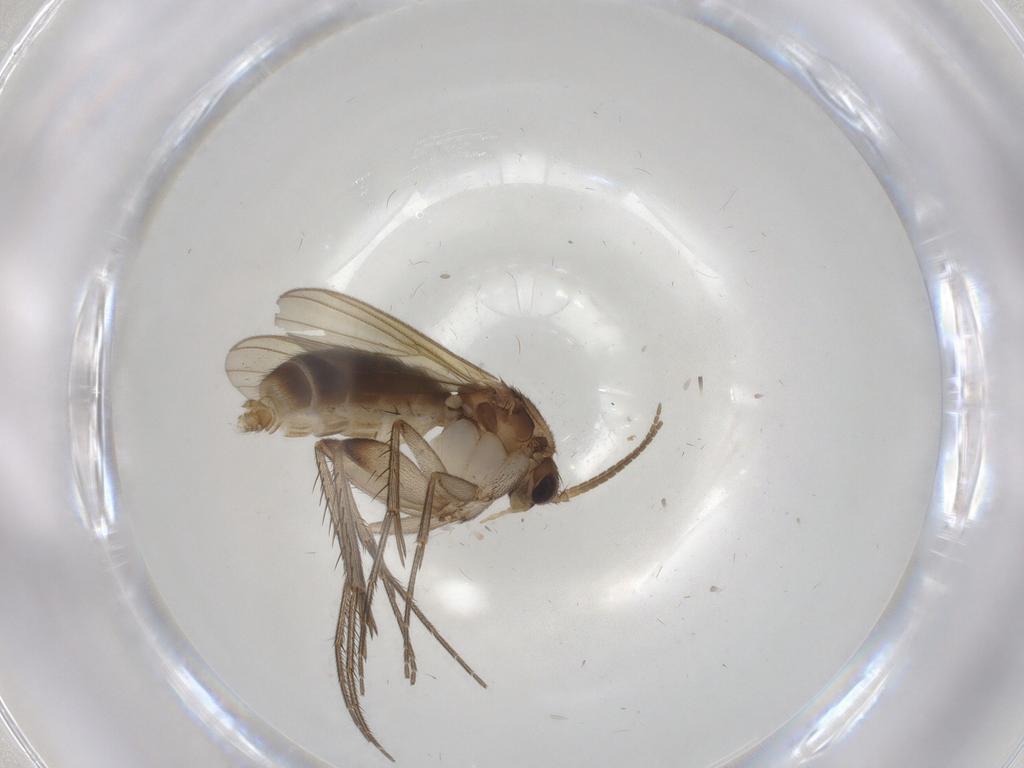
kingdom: Animalia
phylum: Arthropoda
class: Insecta
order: Diptera
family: Mycetophilidae
